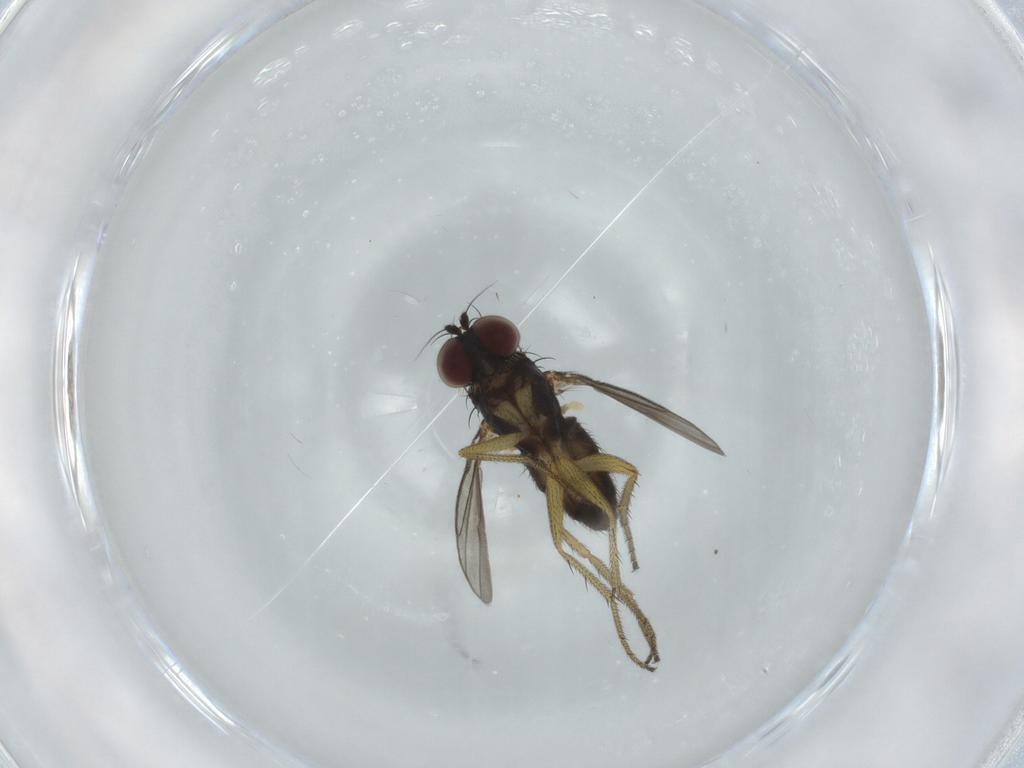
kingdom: Animalia
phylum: Arthropoda
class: Insecta
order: Diptera
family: Dolichopodidae
